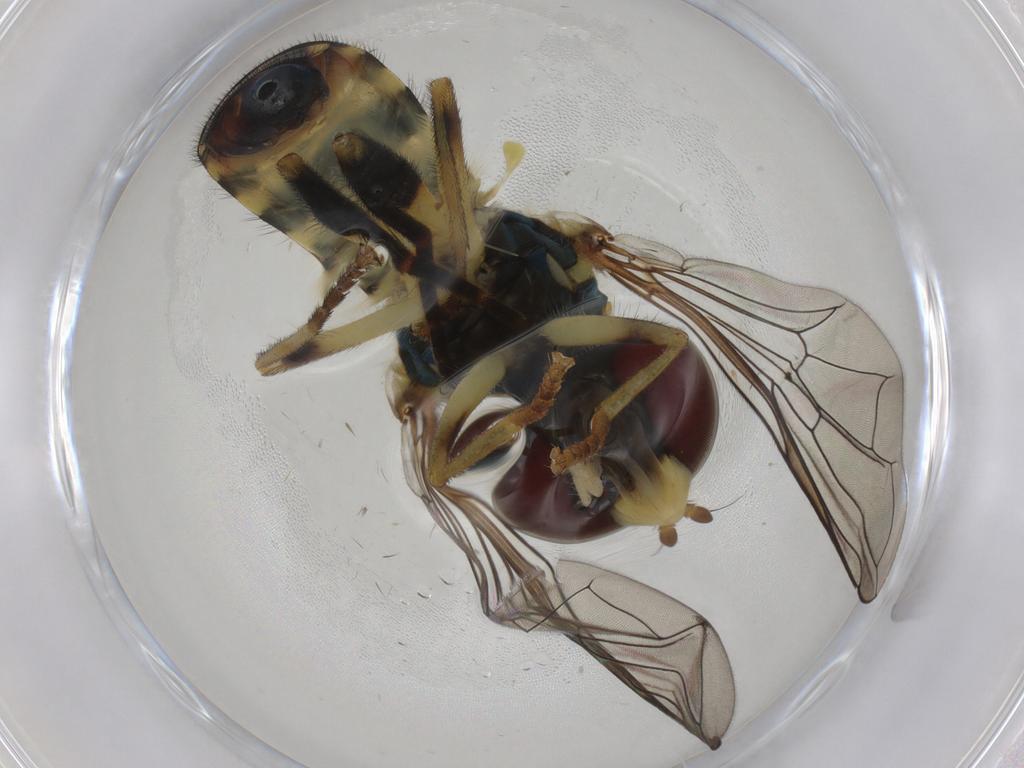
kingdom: Animalia
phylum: Arthropoda
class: Insecta
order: Diptera
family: Syrphidae
